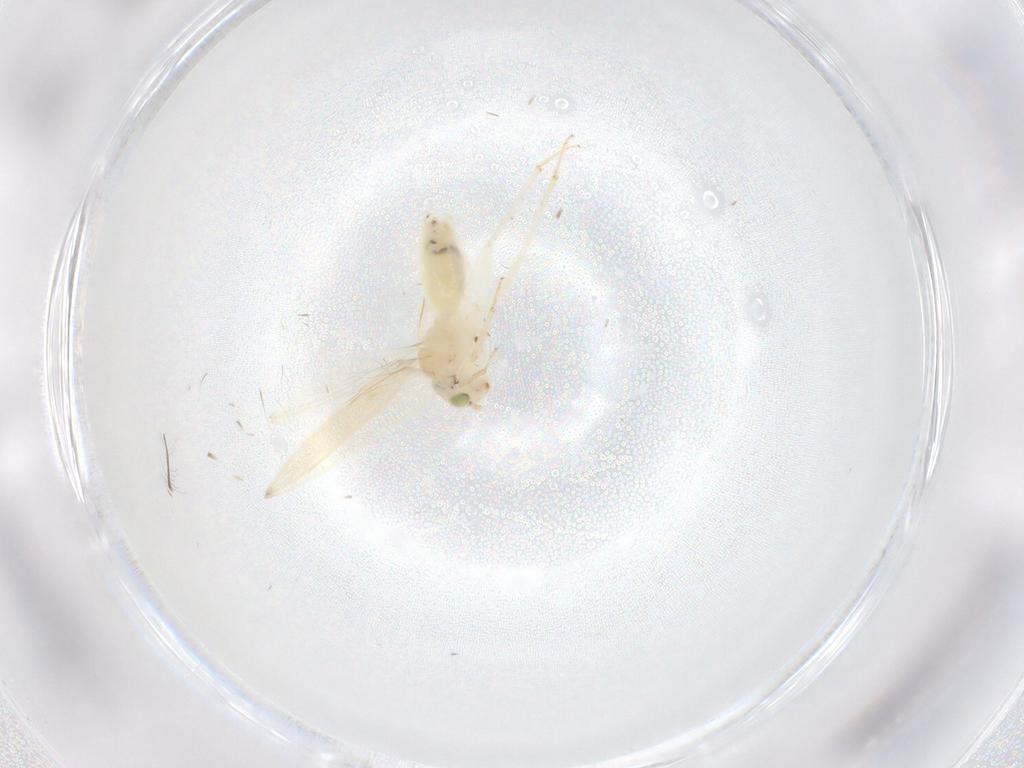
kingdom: Animalia
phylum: Arthropoda
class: Insecta
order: Psocodea
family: Lepidopsocidae
